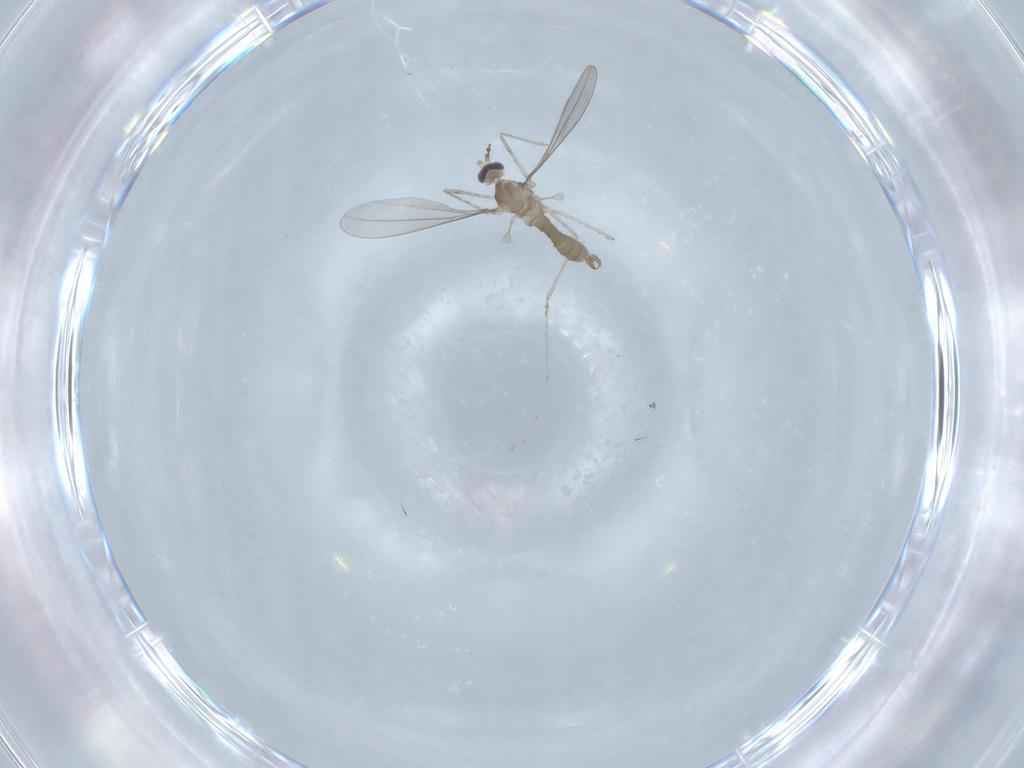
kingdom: Animalia
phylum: Arthropoda
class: Insecta
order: Diptera
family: Cecidomyiidae
